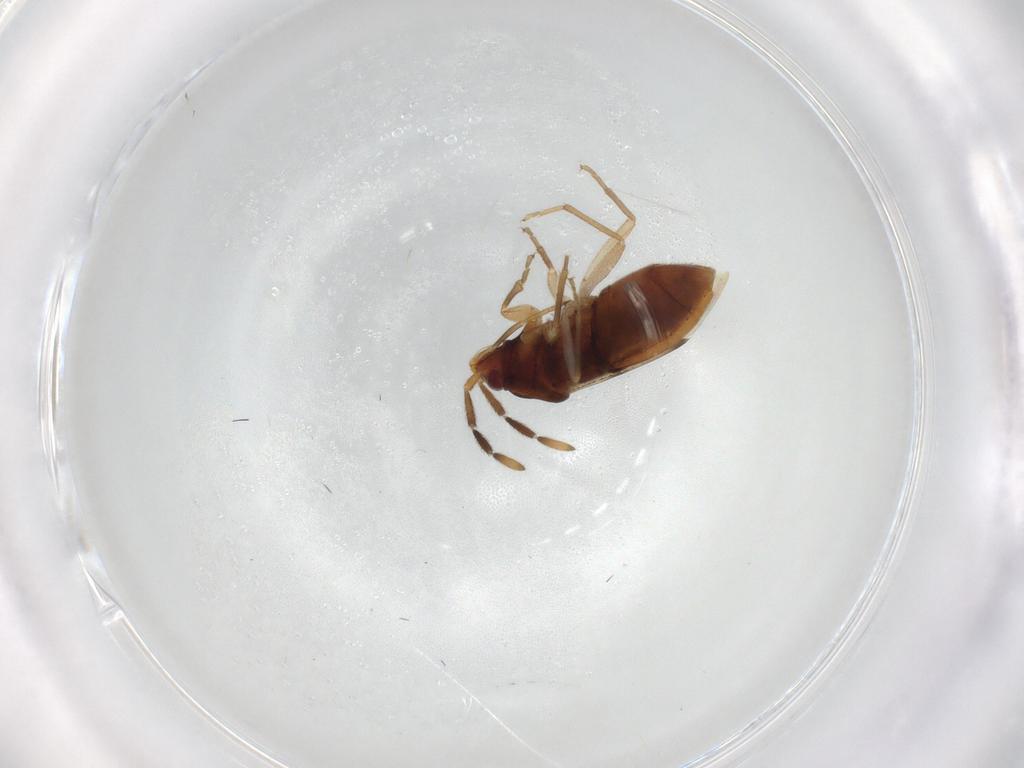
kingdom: Animalia
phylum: Arthropoda
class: Insecta
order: Hemiptera
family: Rhyparochromidae
